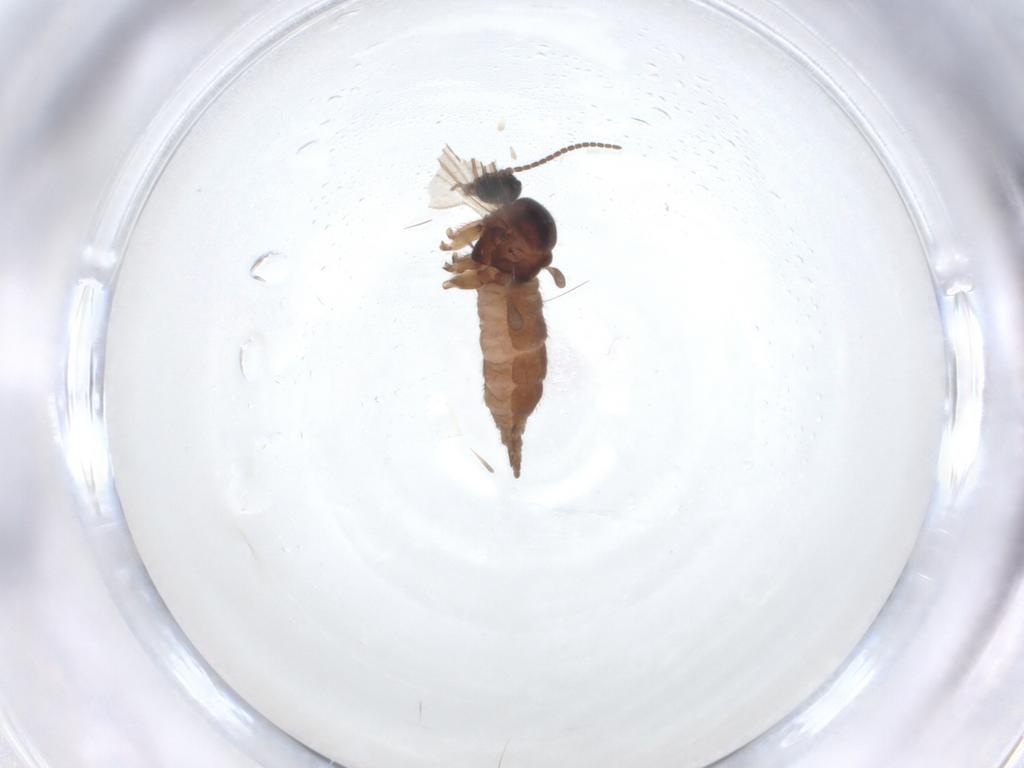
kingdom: Animalia
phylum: Arthropoda
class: Insecta
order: Diptera
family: Sciaridae
